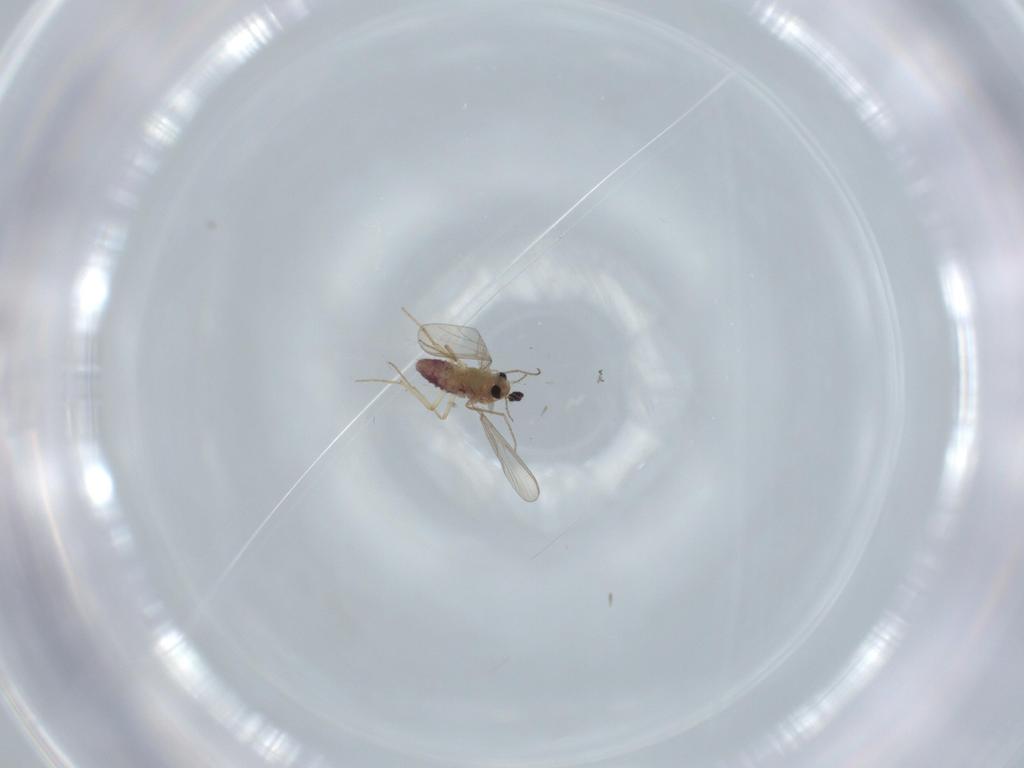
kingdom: Animalia
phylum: Arthropoda
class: Insecta
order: Diptera
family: Chironomidae
